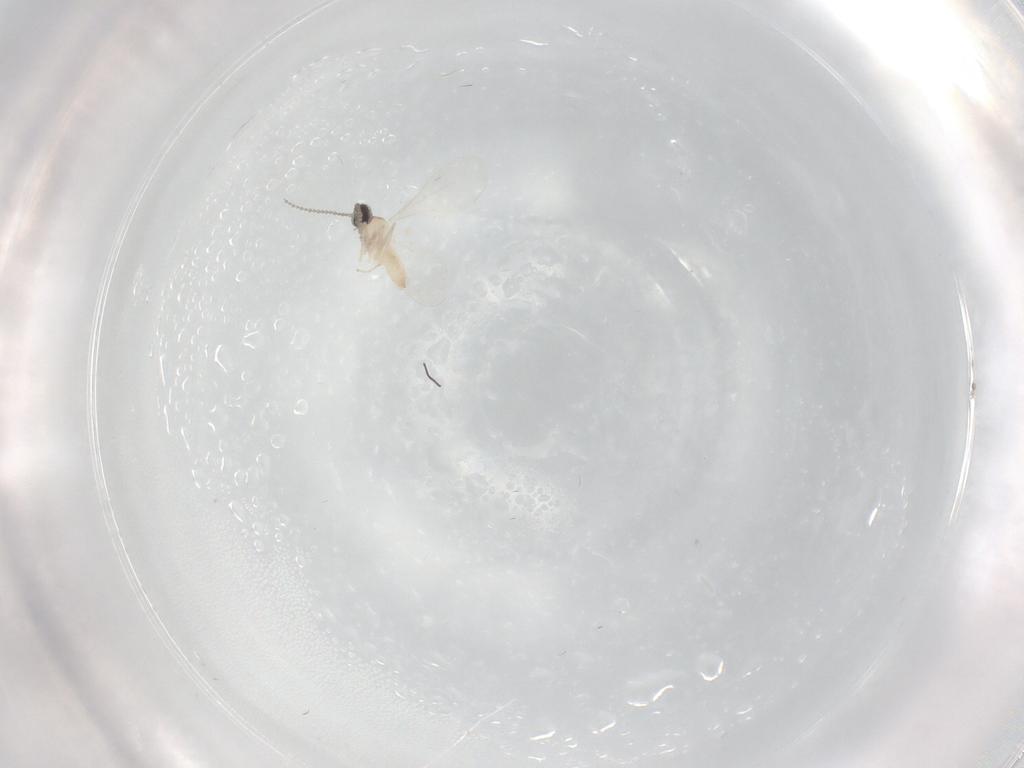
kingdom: Animalia
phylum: Arthropoda
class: Insecta
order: Diptera
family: Cecidomyiidae
